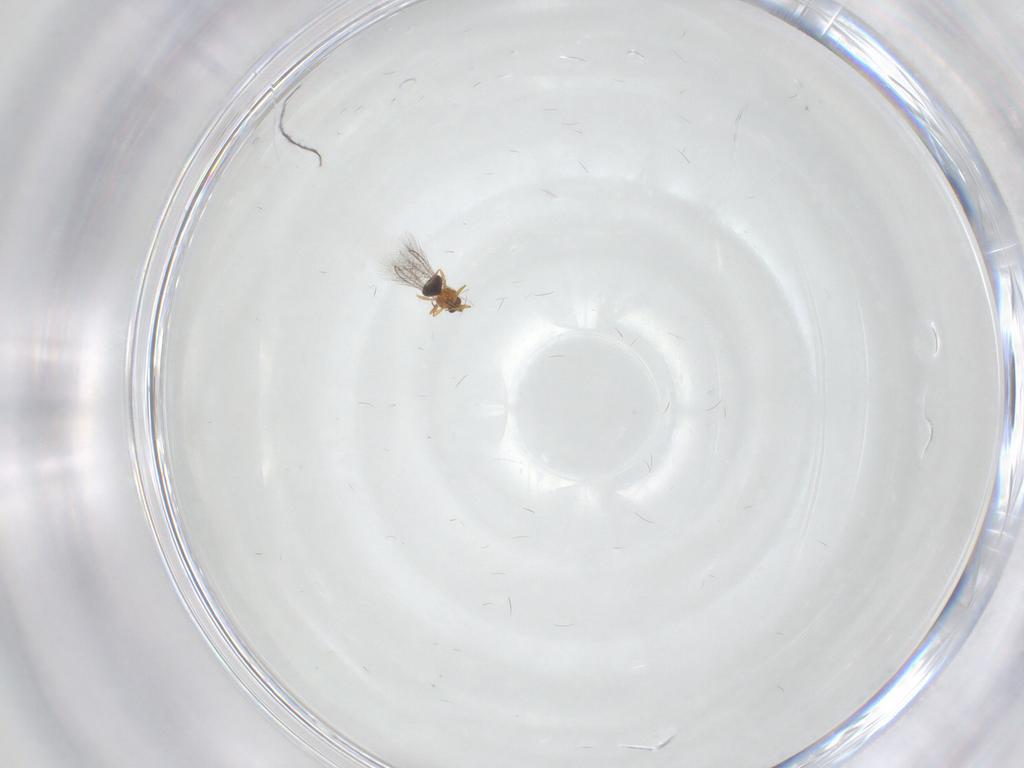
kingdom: Animalia
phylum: Arthropoda
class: Insecta
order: Hymenoptera
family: Mymaridae
